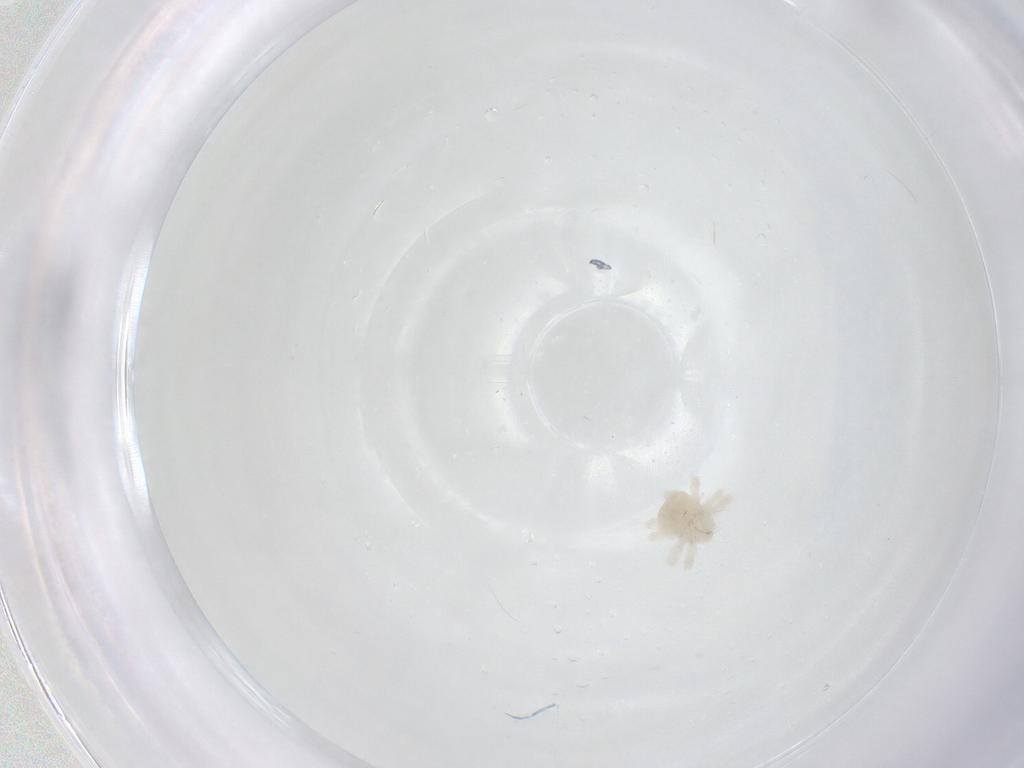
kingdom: Animalia
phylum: Arthropoda
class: Arachnida
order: Trombidiformes
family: Anystidae
